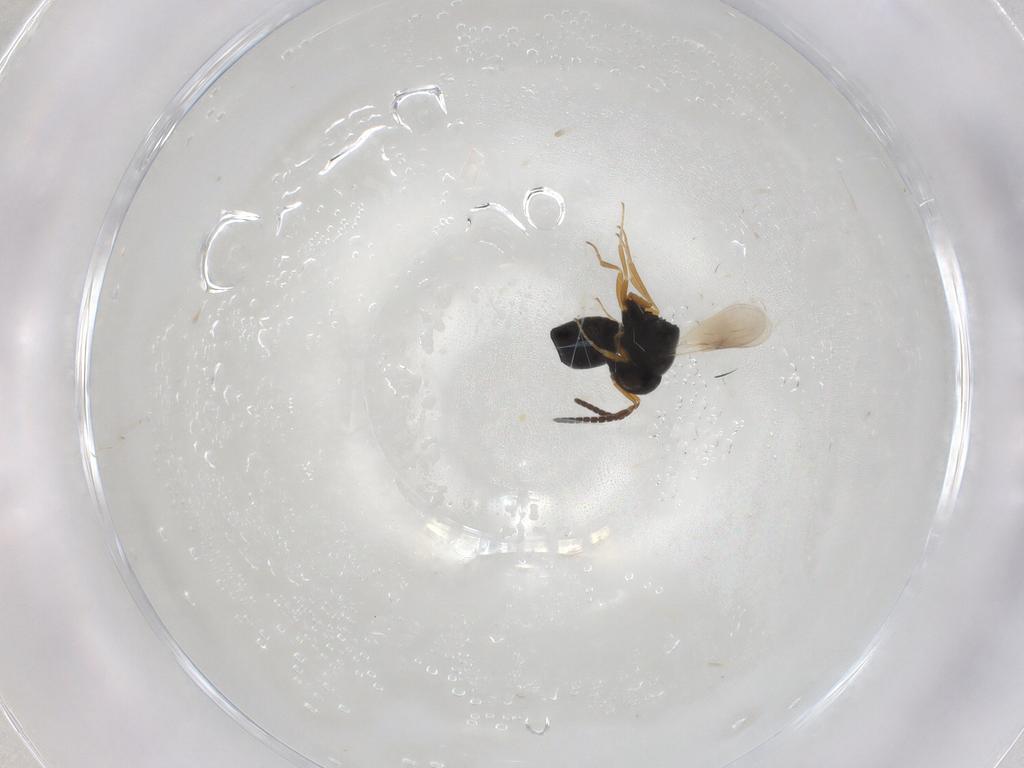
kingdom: Animalia
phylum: Arthropoda
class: Insecta
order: Hymenoptera
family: Scelionidae
